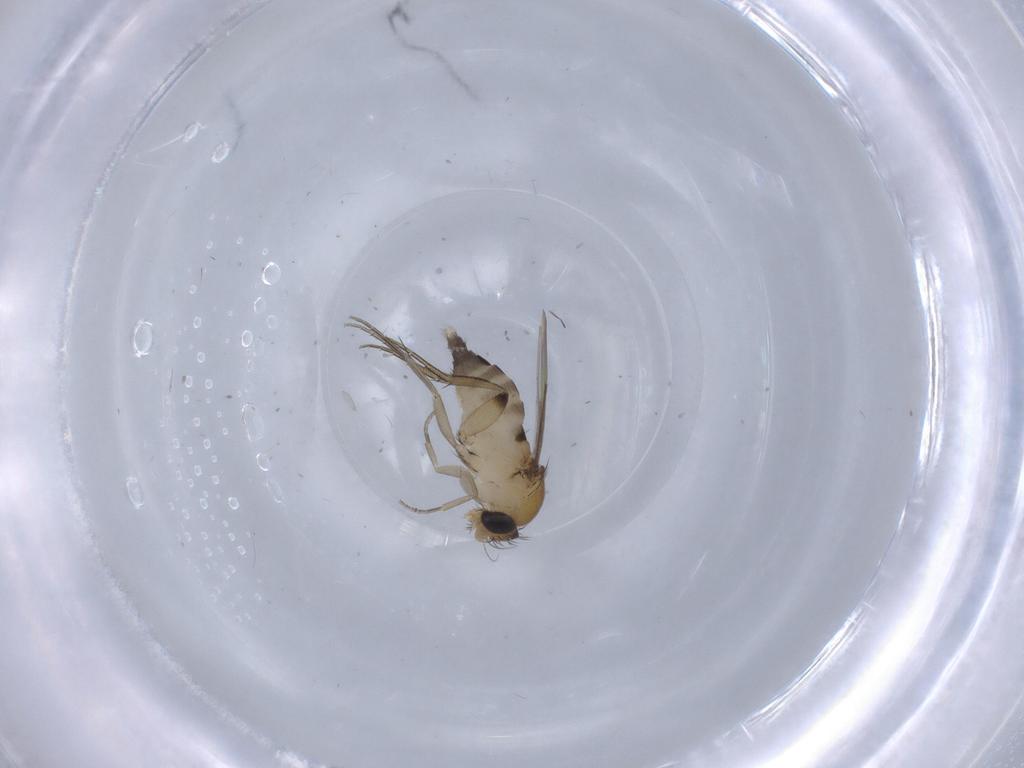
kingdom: Animalia
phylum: Arthropoda
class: Insecta
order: Diptera
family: Phoridae
